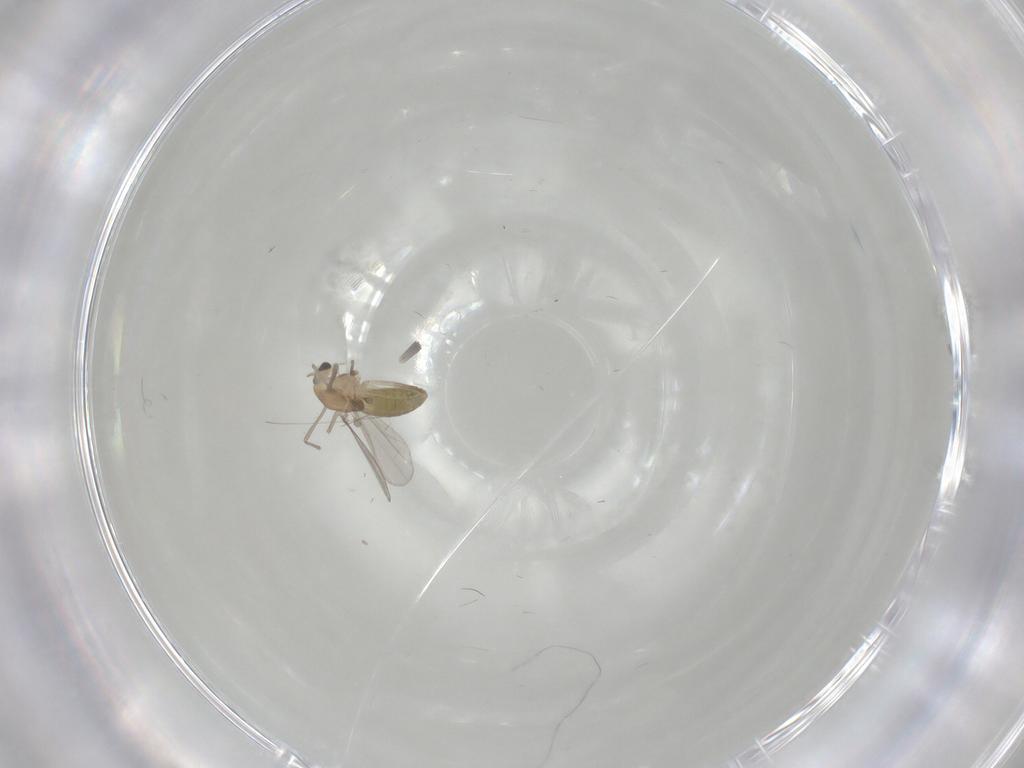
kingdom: Animalia
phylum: Arthropoda
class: Insecta
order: Diptera
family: Chironomidae
